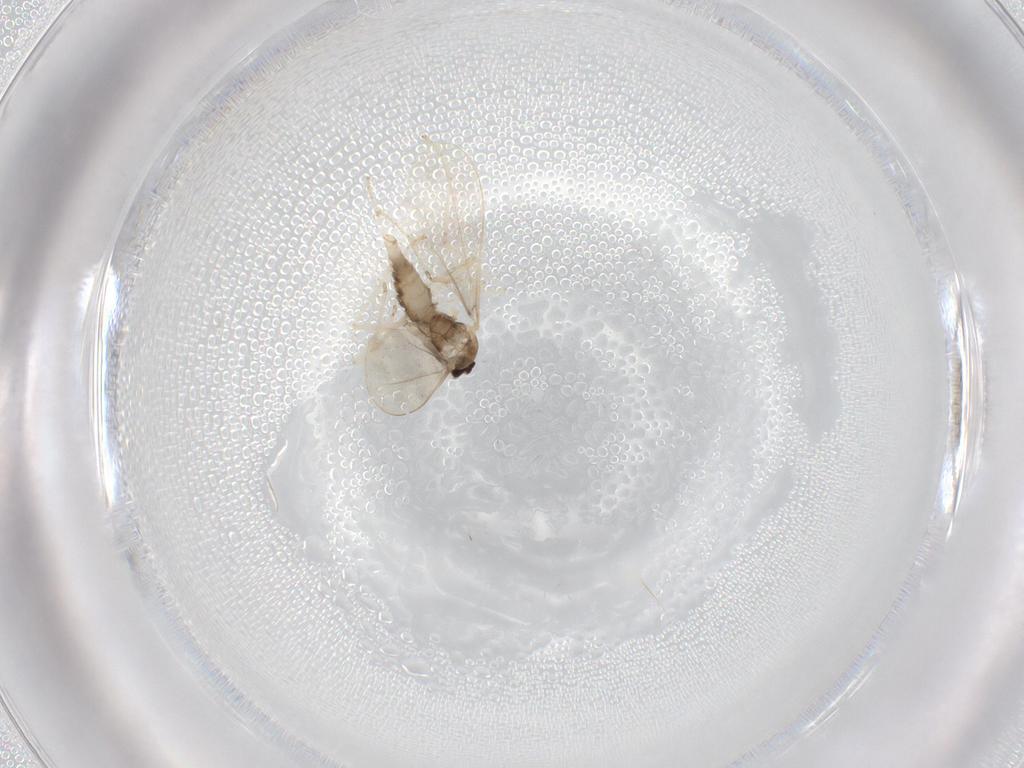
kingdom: Animalia
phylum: Arthropoda
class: Insecta
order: Diptera
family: Cecidomyiidae
